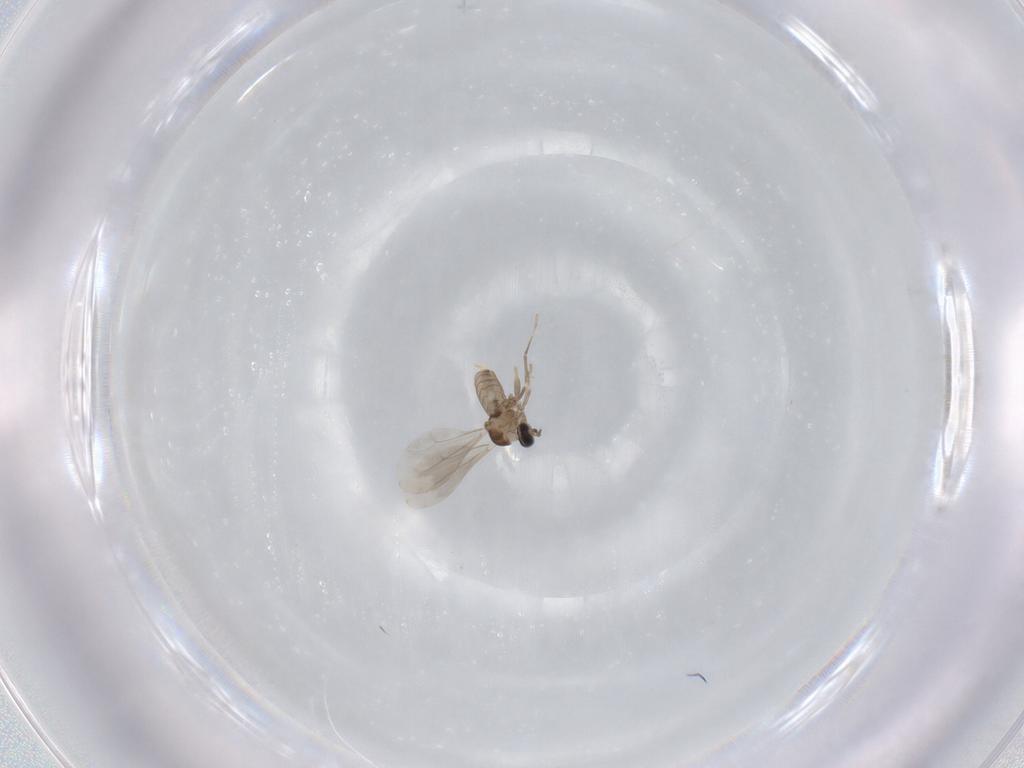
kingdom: Animalia
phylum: Arthropoda
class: Insecta
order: Diptera
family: Cecidomyiidae
